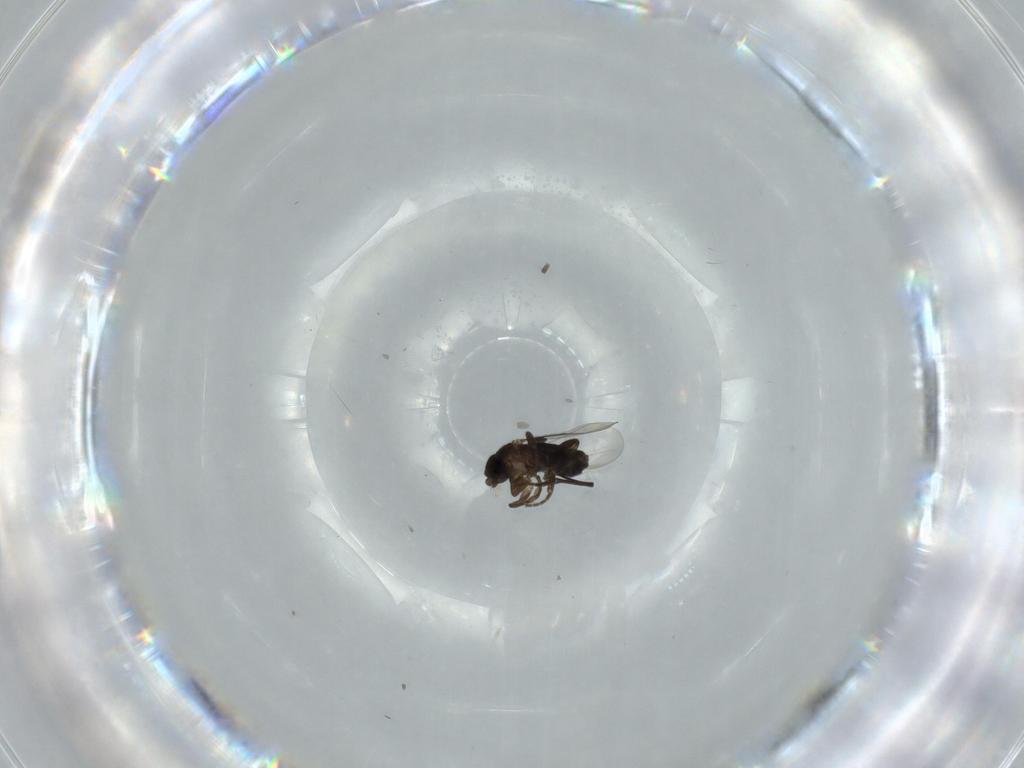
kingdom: Animalia
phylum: Arthropoda
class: Insecta
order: Diptera
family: Phoridae
